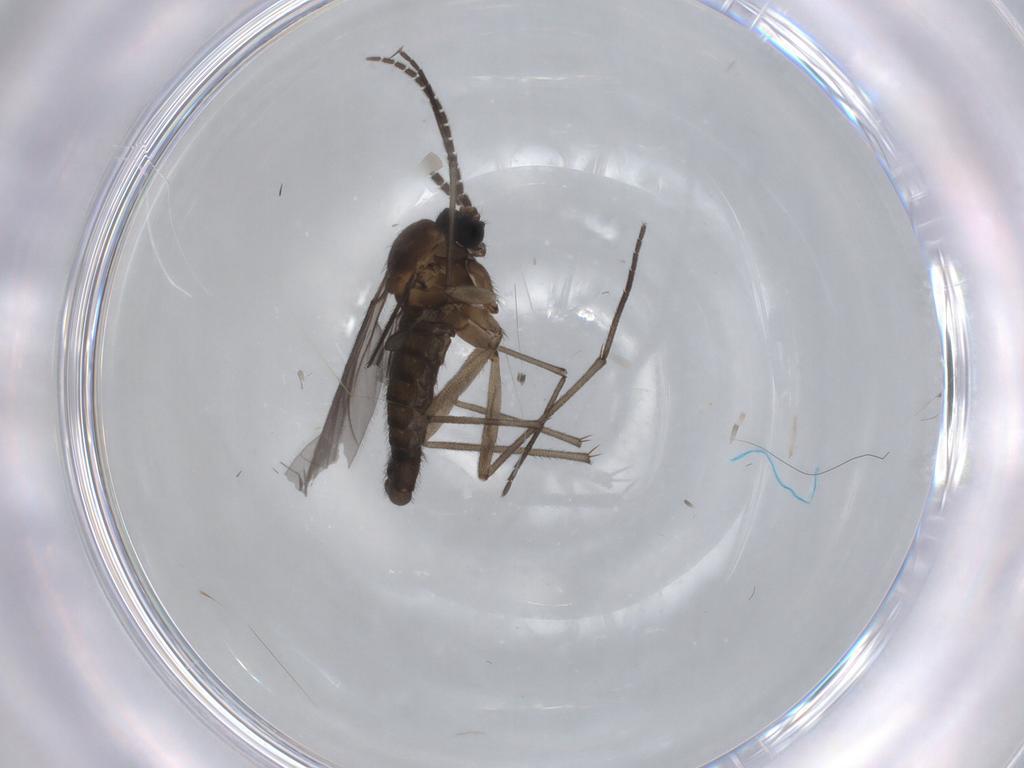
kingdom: Animalia
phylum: Arthropoda
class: Insecta
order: Diptera
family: Sciaridae
